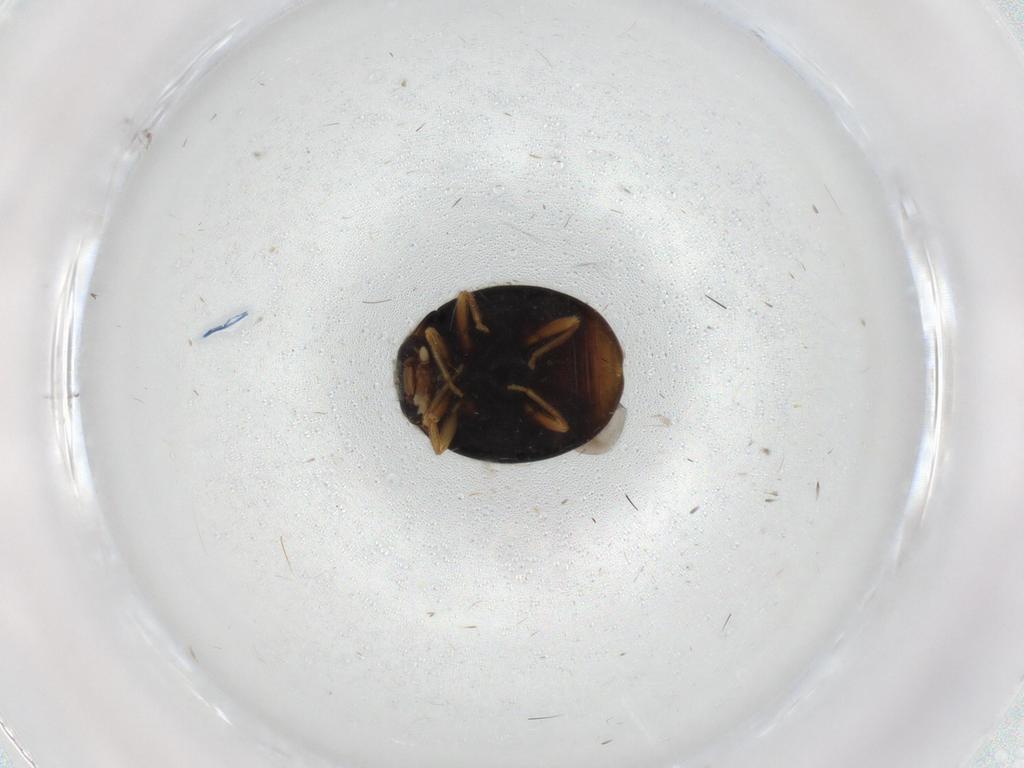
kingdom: Animalia
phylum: Arthropoda
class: Insecta
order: Coleoptera
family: Coccinellidae
